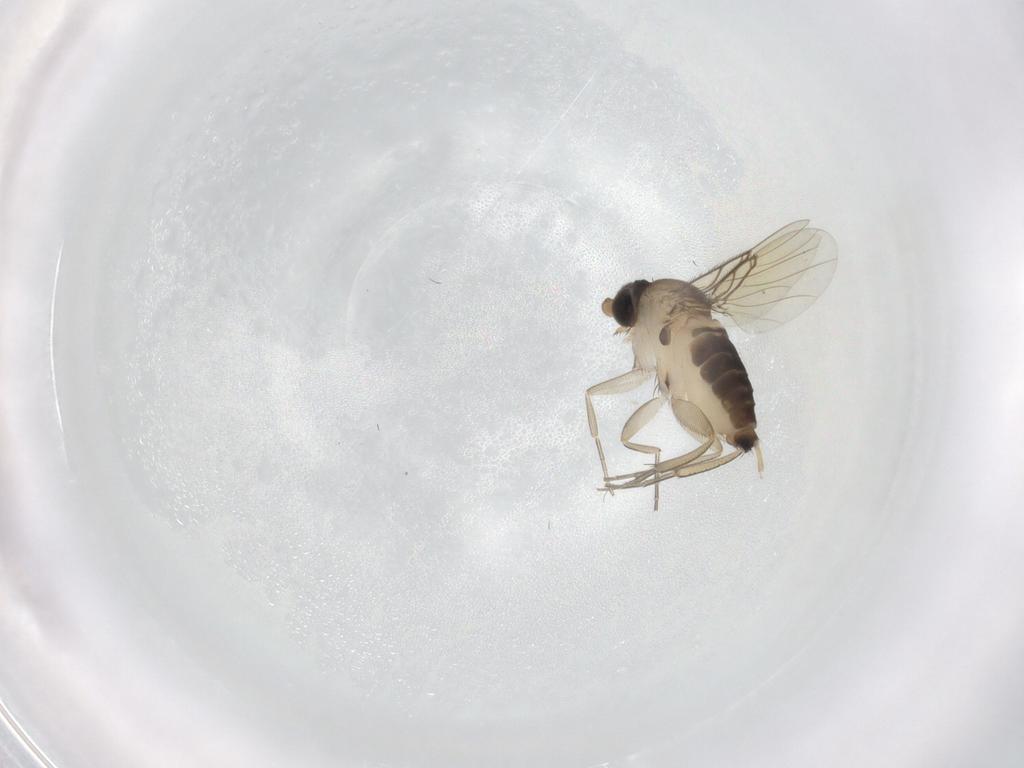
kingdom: Animalia
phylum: Arthropoda
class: Insecta
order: Diptera
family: Phoridae
